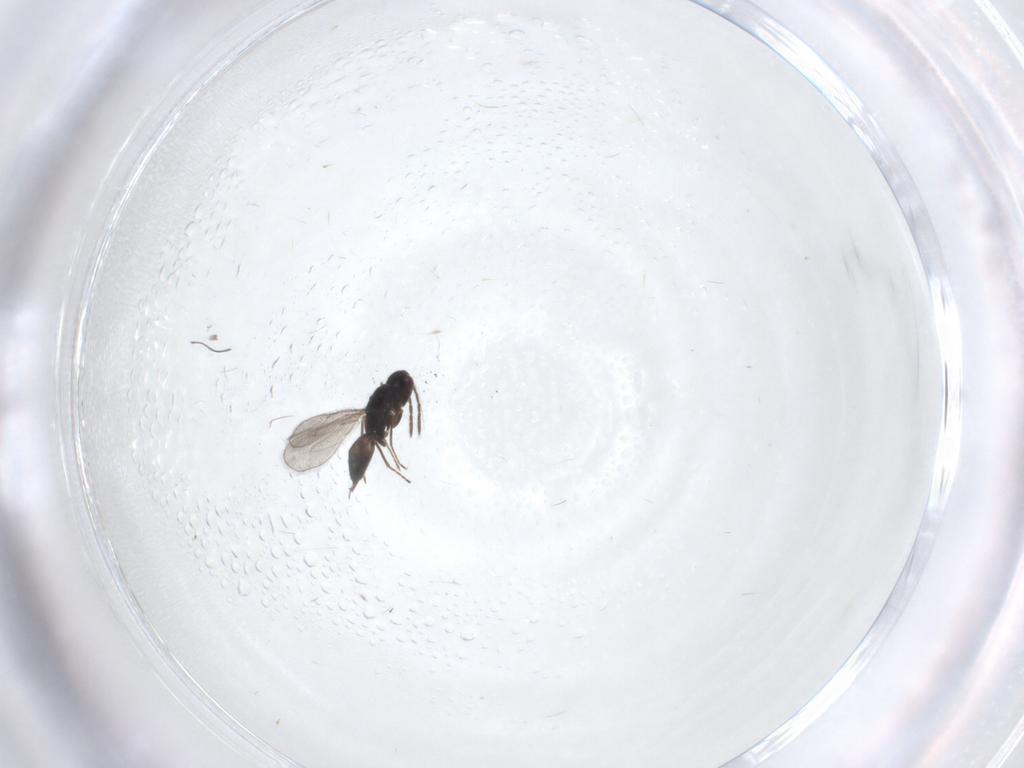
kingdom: Animalia
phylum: Arthropoda
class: Insecta
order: Hymenoptera
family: Eulophidae
